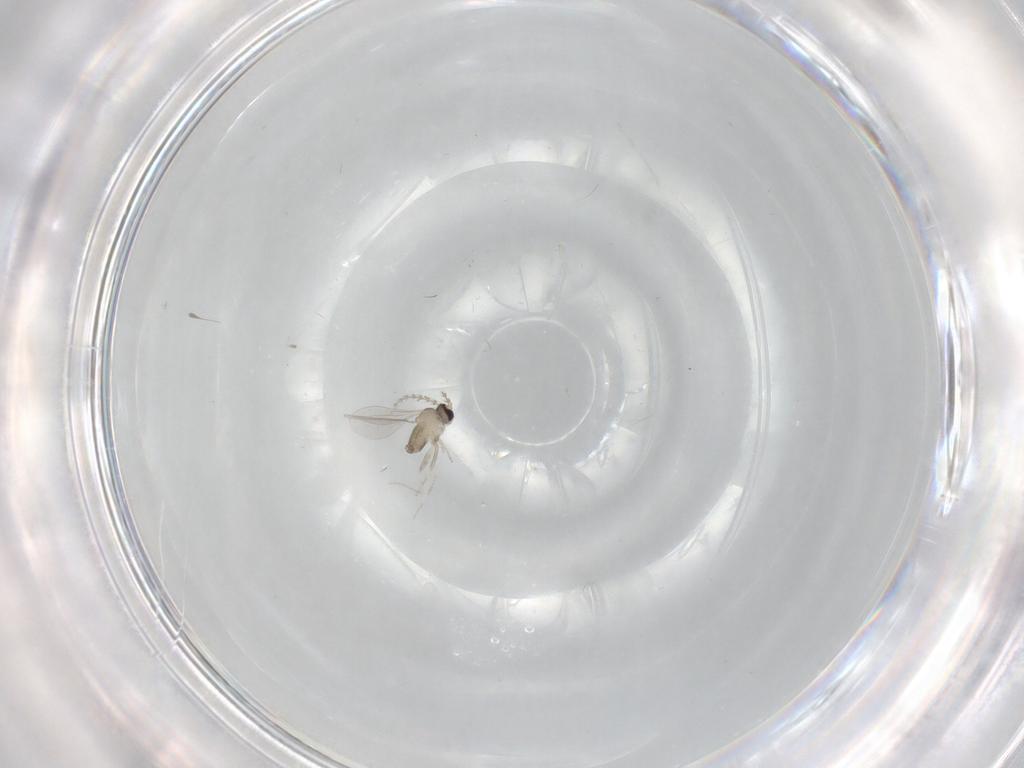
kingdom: Animalia
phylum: Arthropoda
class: Insecta
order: Diptera
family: Cecidomyiidae
